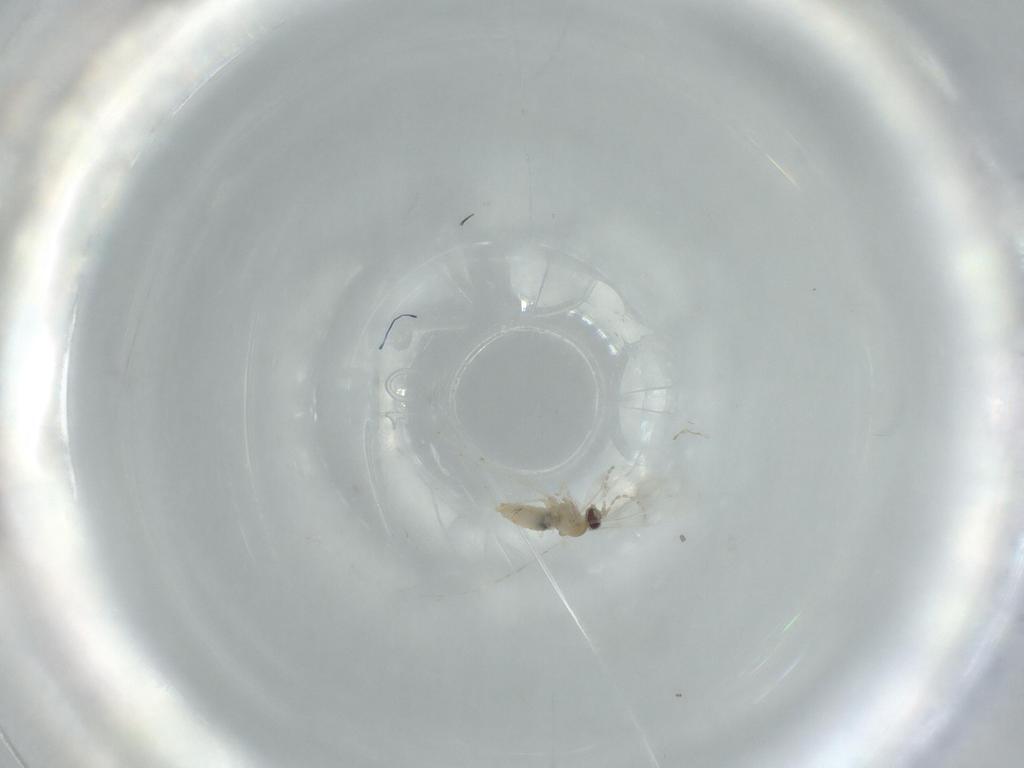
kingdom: Animalia
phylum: Arthropoda
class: Insecta
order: Diptera
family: Cecidomyiidae
